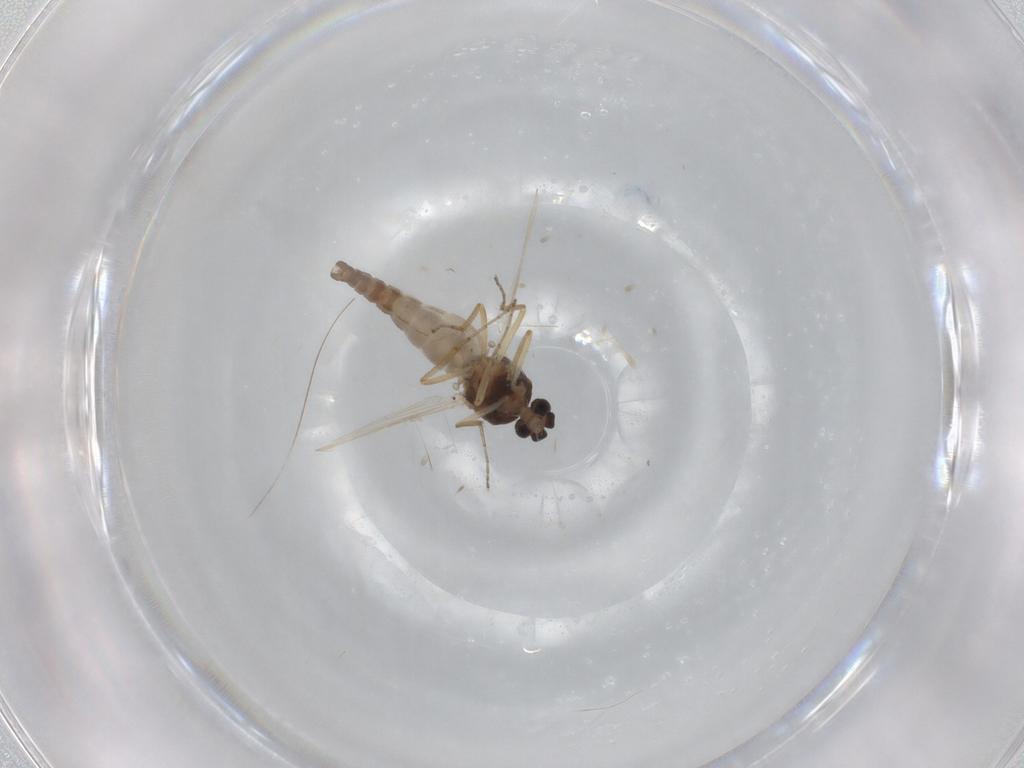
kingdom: Animalia
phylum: Arthropoda
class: Insecta
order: Diptera
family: Ceratopogonidae
